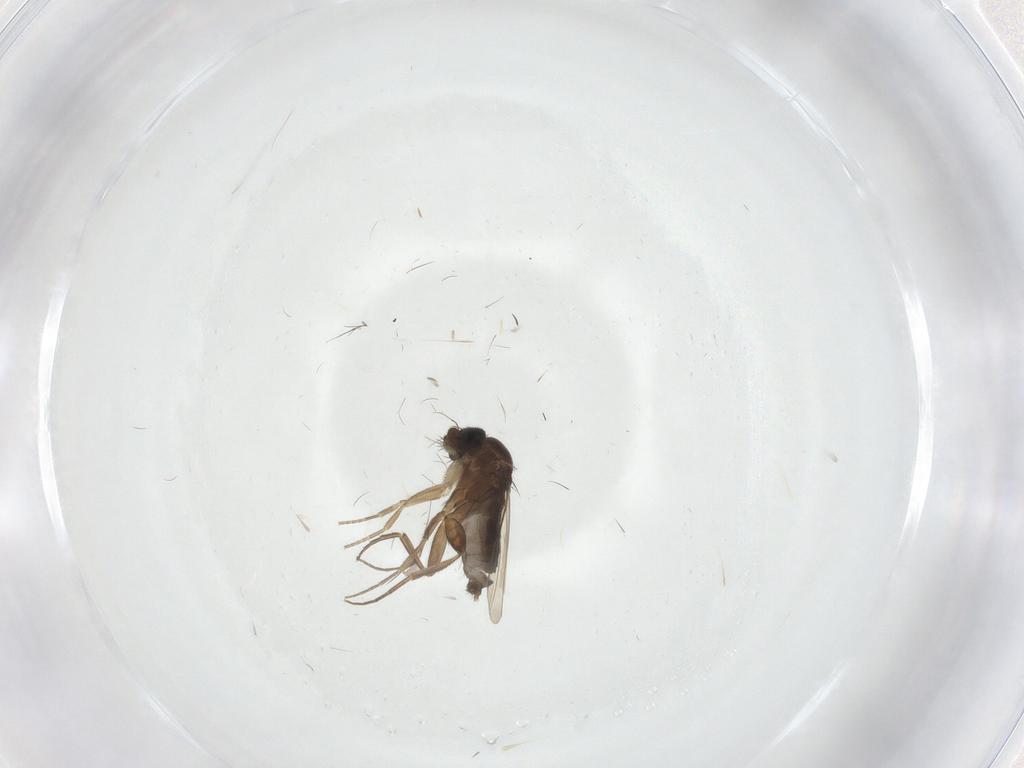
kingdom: Animalia
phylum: Arthropoda
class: Insecta
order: Diptera
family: Phoridae
